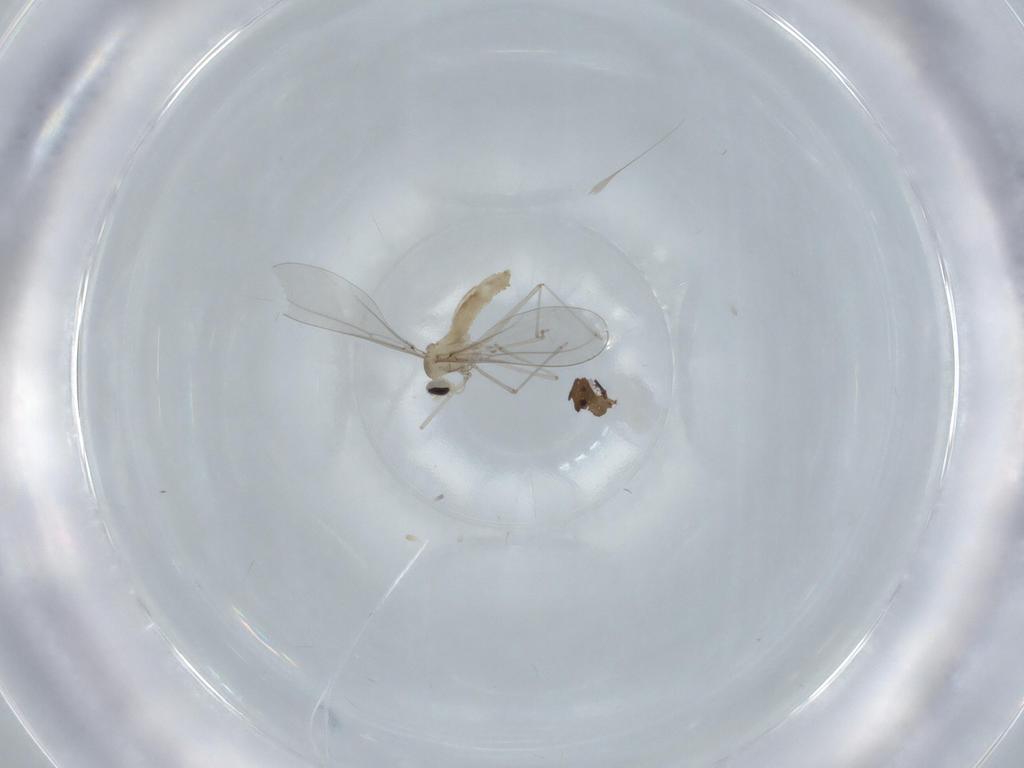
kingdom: Animalia
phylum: Arthropoda
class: Insecta
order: Diptera
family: Cecidomyiidae
